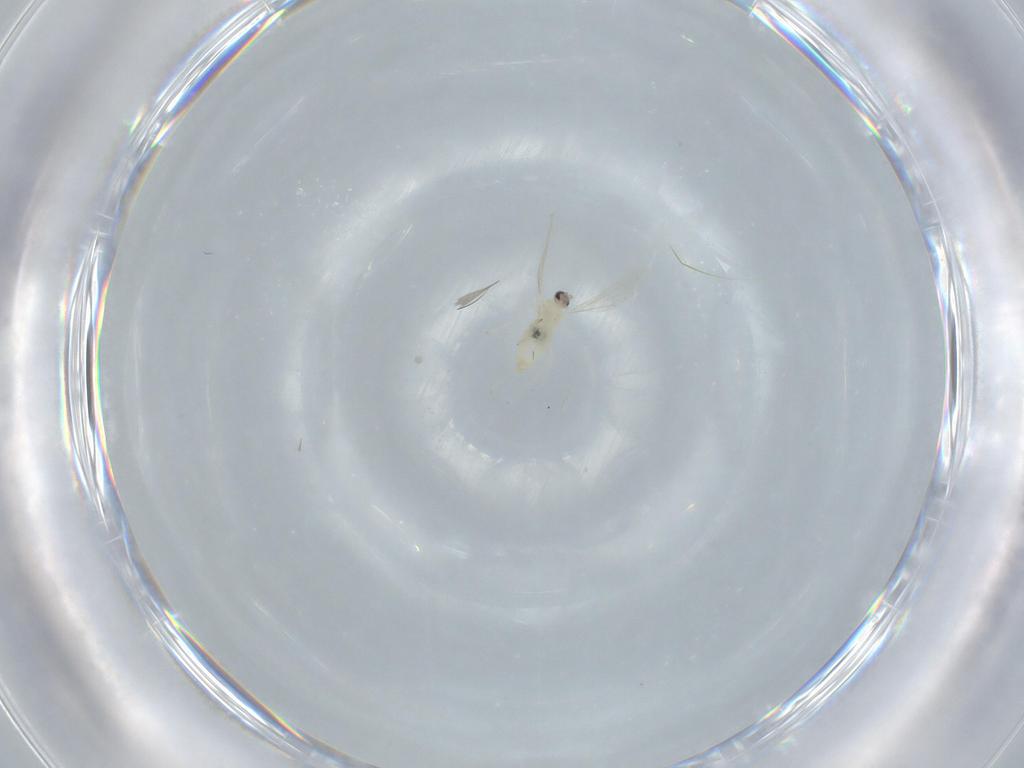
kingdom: Animalia
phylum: Arthropoda
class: Insecta
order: Diptera
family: Cecidomyiidae
